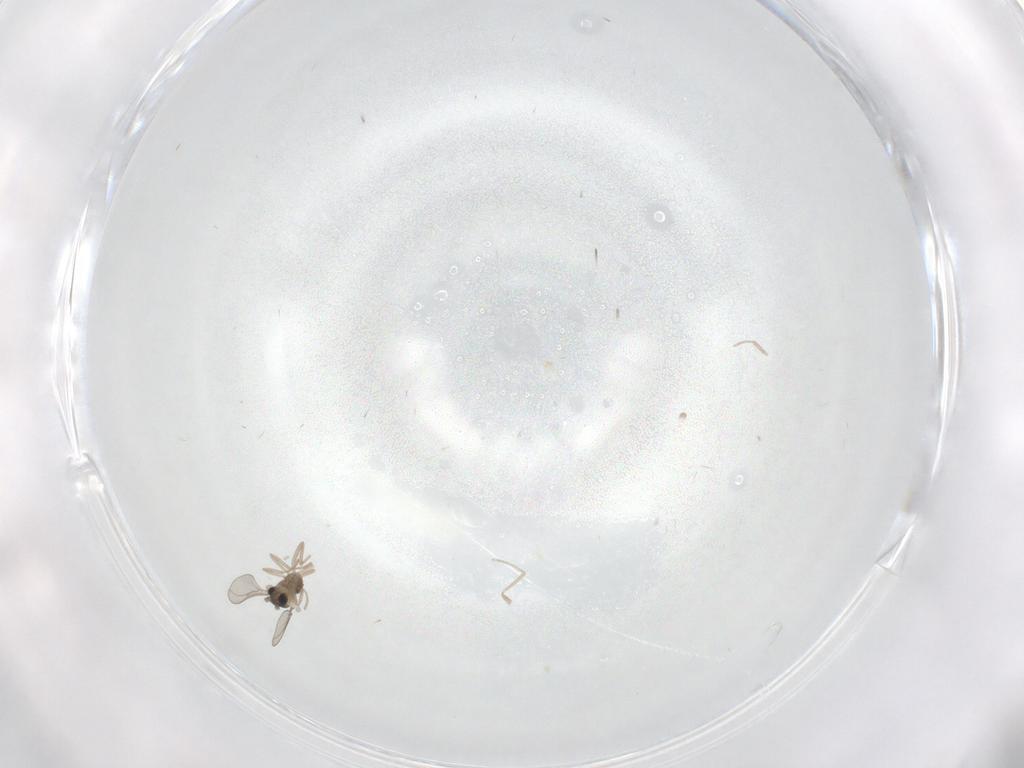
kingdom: Animalia
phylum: Arthropoda
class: Insecta
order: Diptera
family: Cecidomyiidae
